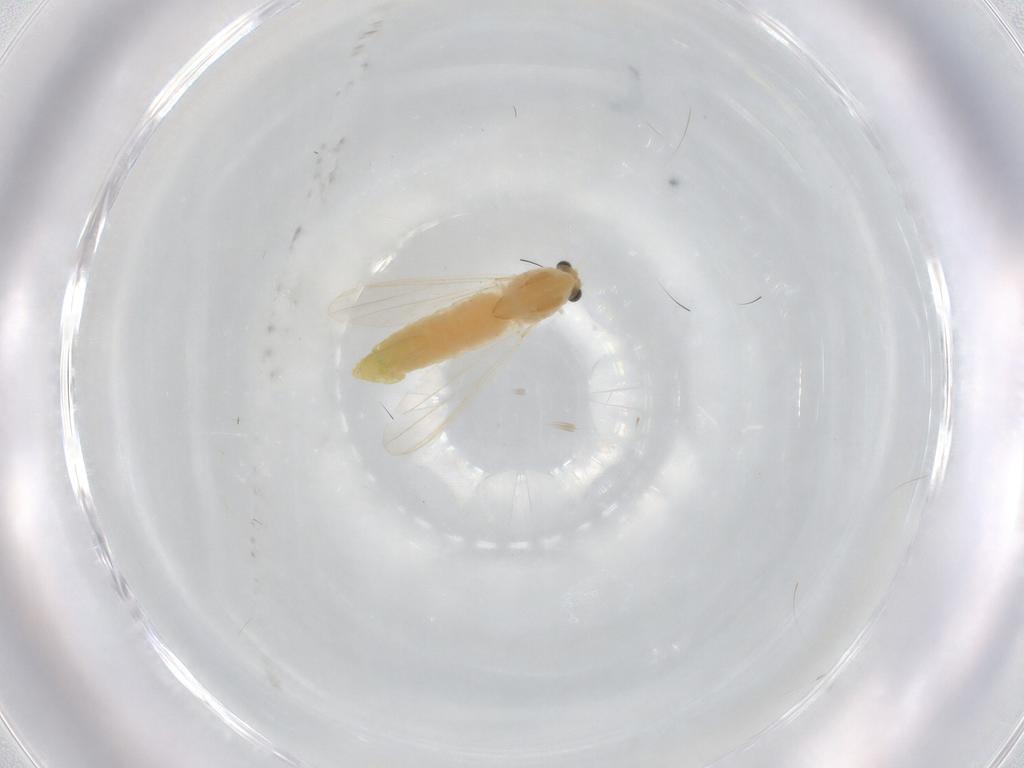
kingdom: Animalia
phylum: Arthropoda
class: Insecta
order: Diptera
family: Chironomidae
